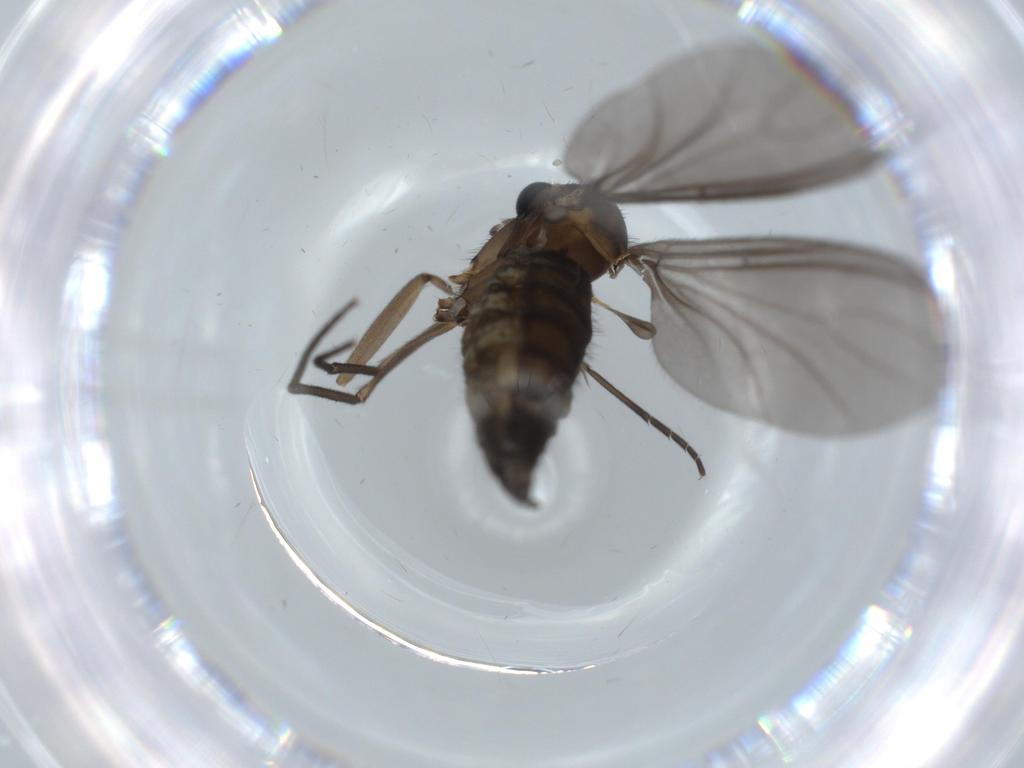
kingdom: Animalia
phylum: Arthropoda
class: Insecta
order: Diptera
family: Sciaridae
